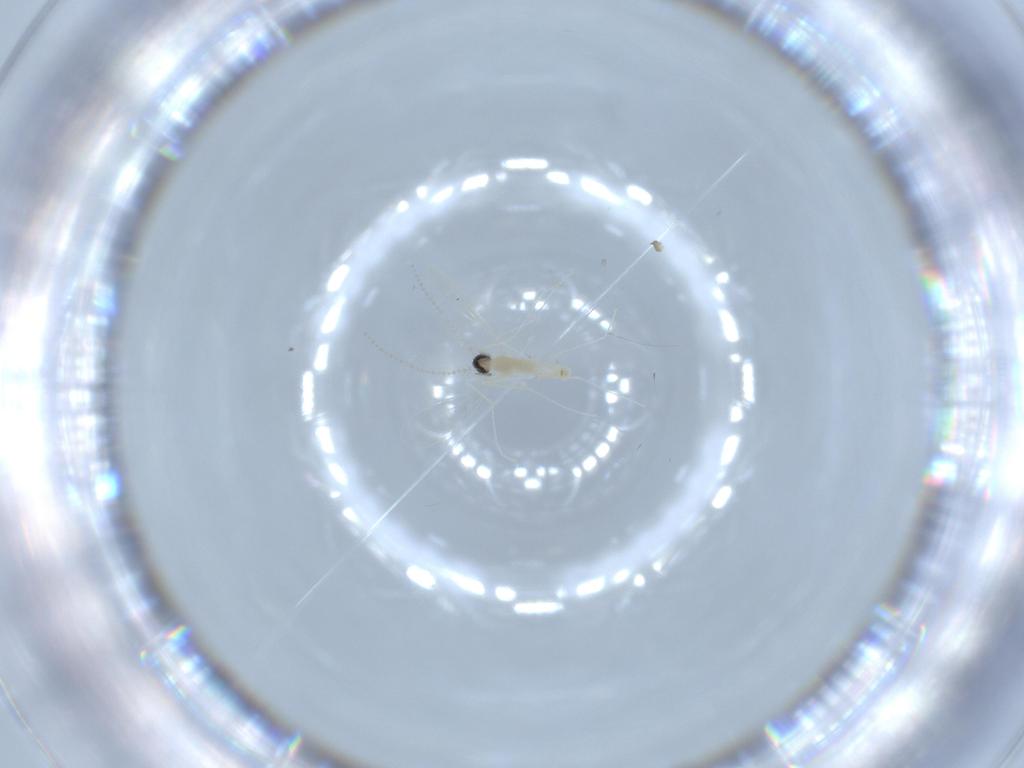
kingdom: Animalia
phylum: Arthropoda
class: Insecta
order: Diptera
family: Cecidomyiidae
